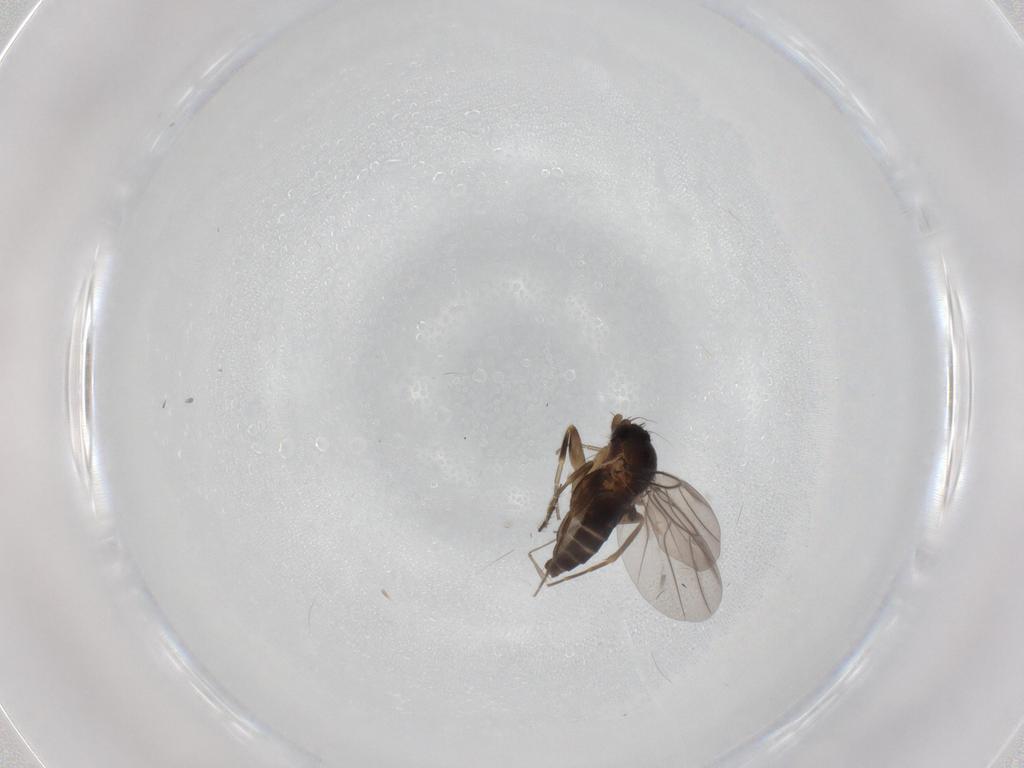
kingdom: Animalia
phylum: Arthropoda
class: Insecta
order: Diptera
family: Phoridae
